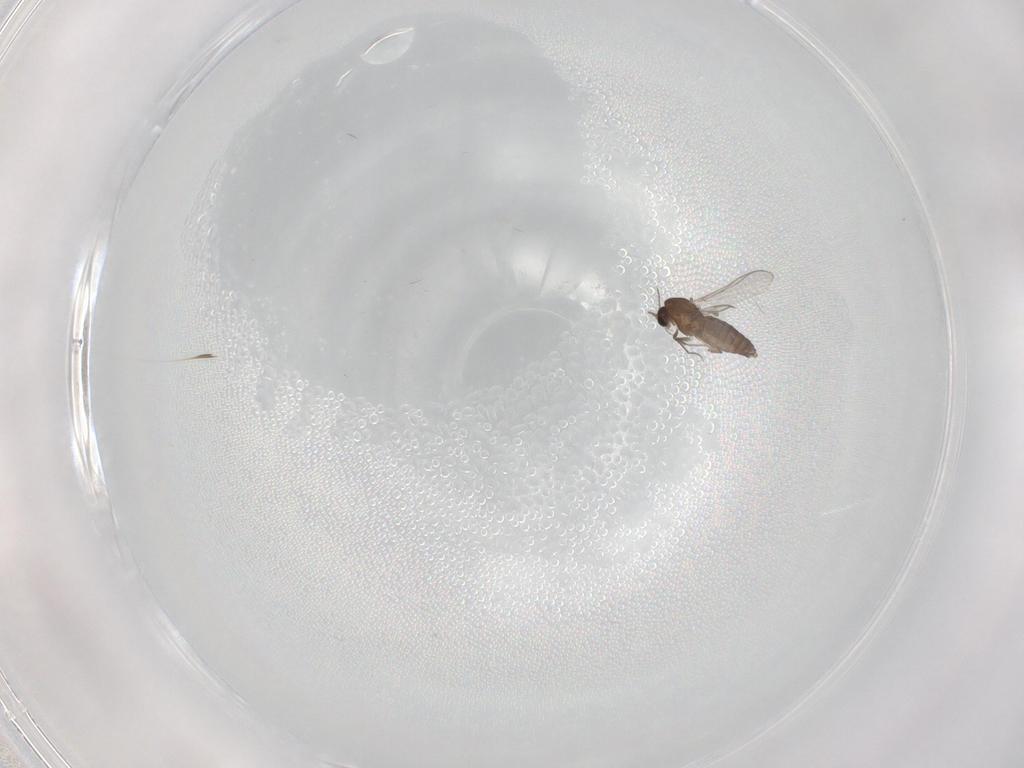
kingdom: Animalia
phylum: Arthropoda
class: Insecta
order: Diptera
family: Chironomidae
